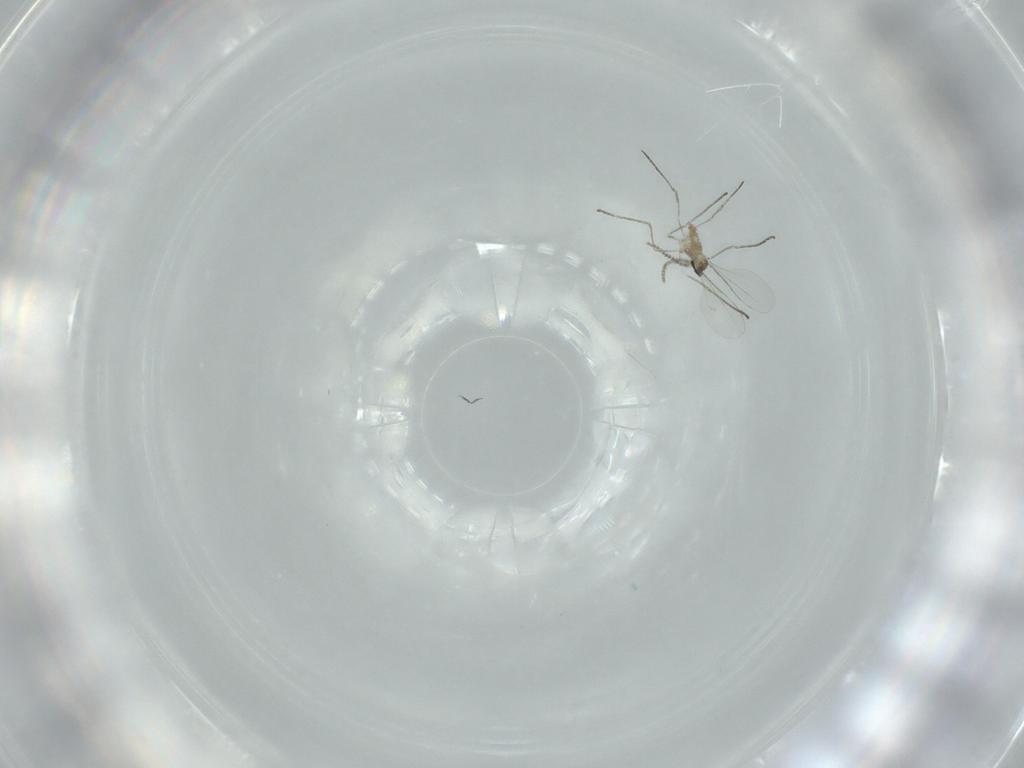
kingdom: Animalia
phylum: Arthropoda
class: Insecta
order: Diptera
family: Cecidomyiidae
